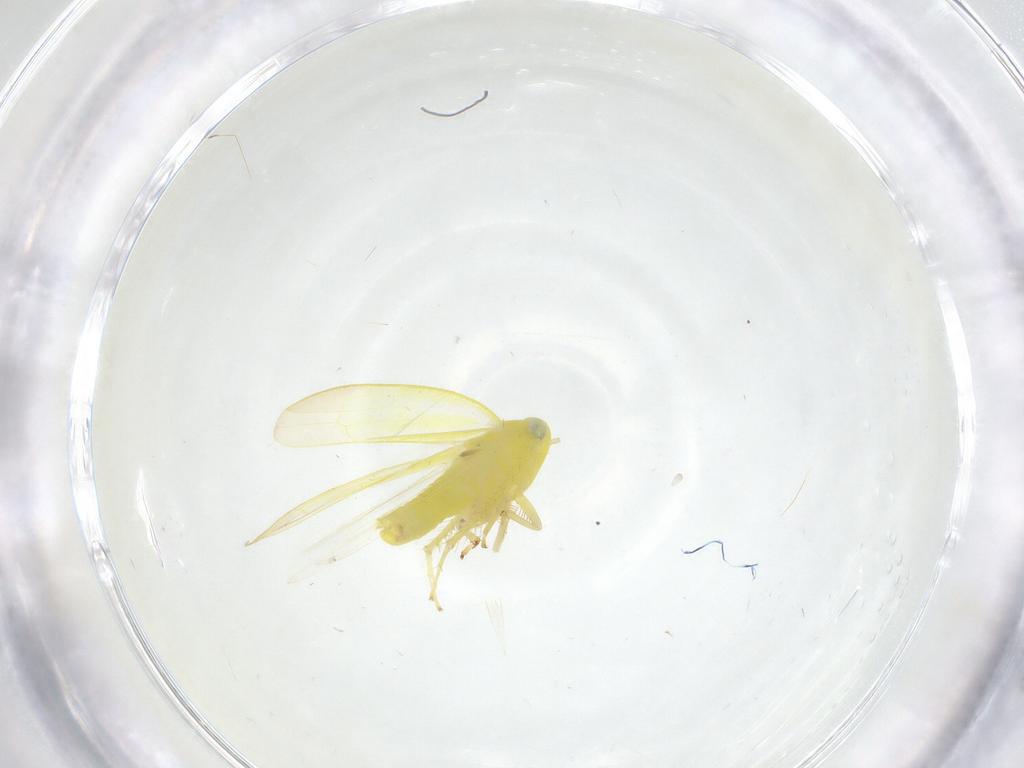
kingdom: Animalia
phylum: Arthropoda
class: Insecta
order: Hemiptera
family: Cicadellidae
